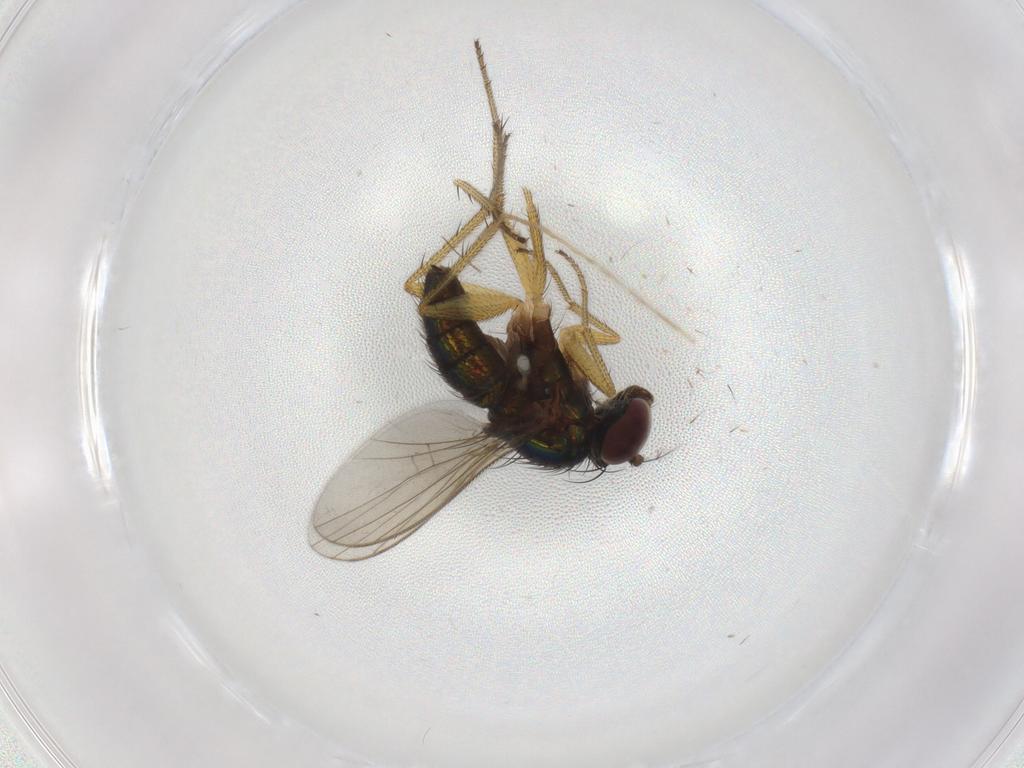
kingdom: Animalia
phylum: Arthropoda
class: Insecta
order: Diptera
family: Dolichopodidae
